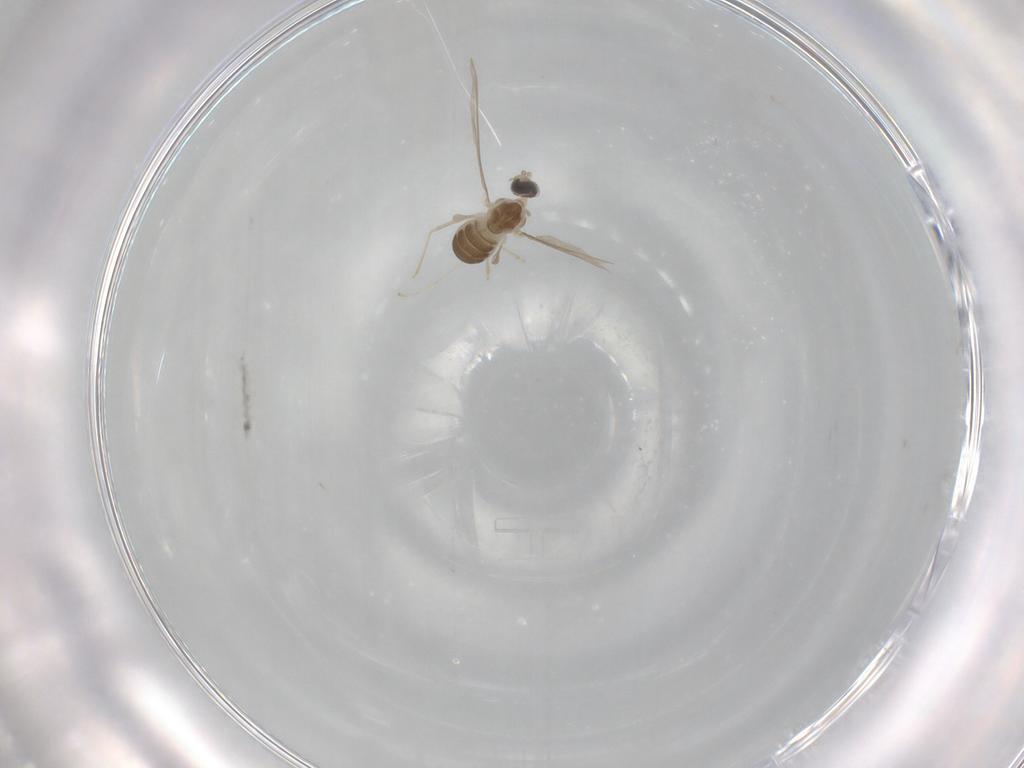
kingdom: Animalia
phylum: Arthropoda
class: Insecta
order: Diptera
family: Cecidomyiidae
